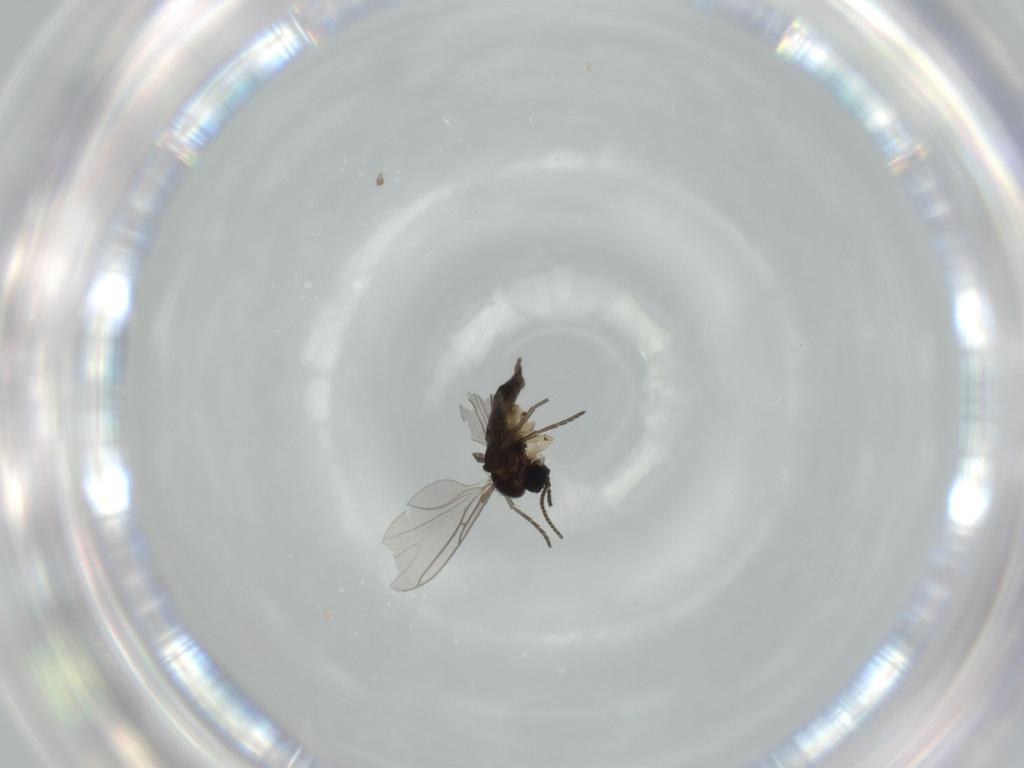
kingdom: Animalia
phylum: Arthropoda
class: Insecta
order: Diptera
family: Sciaridae
